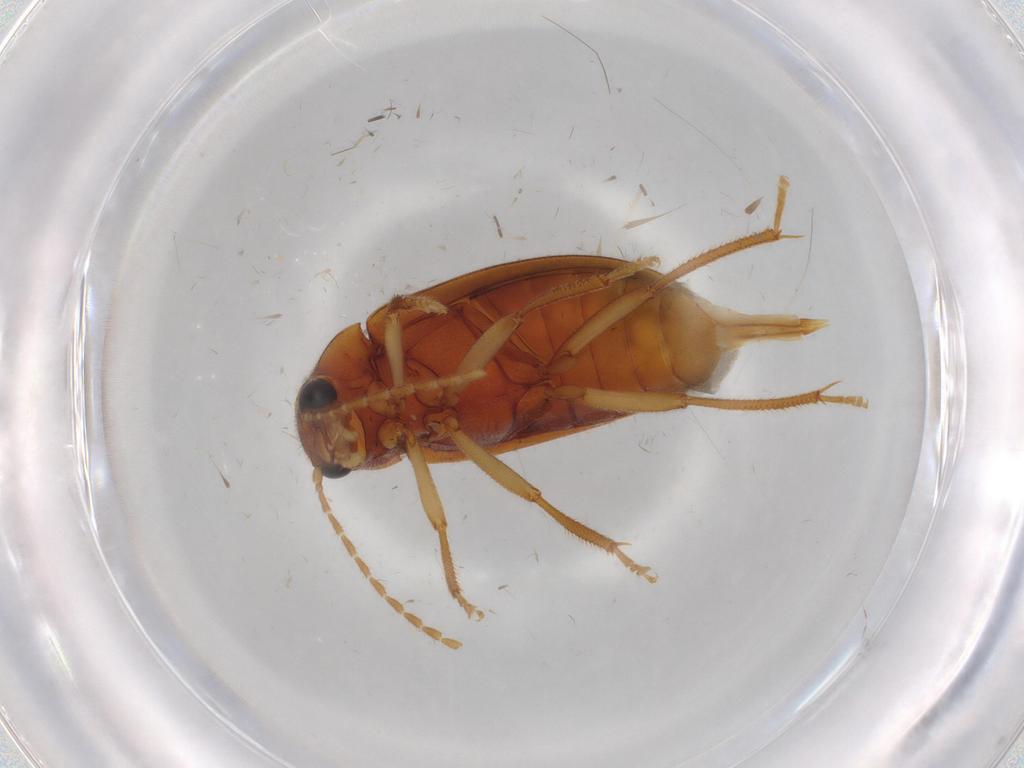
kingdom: Animalia
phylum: Arthropoda
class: Insecta
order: Coleoptera
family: Ptilodactylidae
